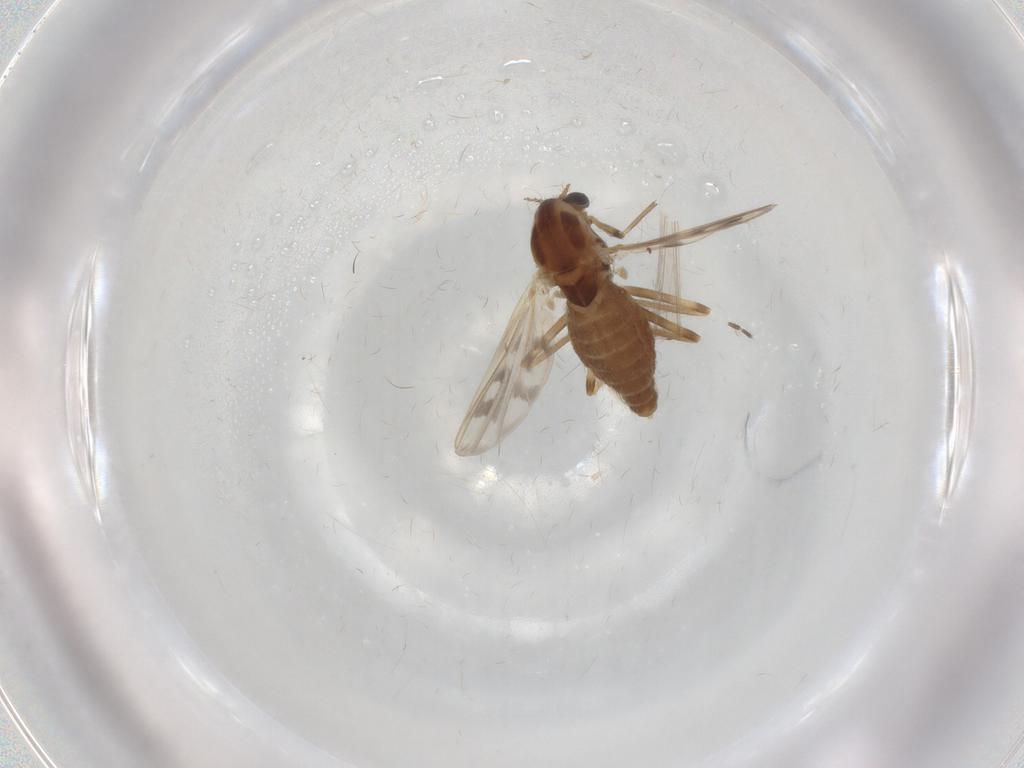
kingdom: Animalia
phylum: Arthropoda
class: Insecta
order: Diptera
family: Chironomidae
